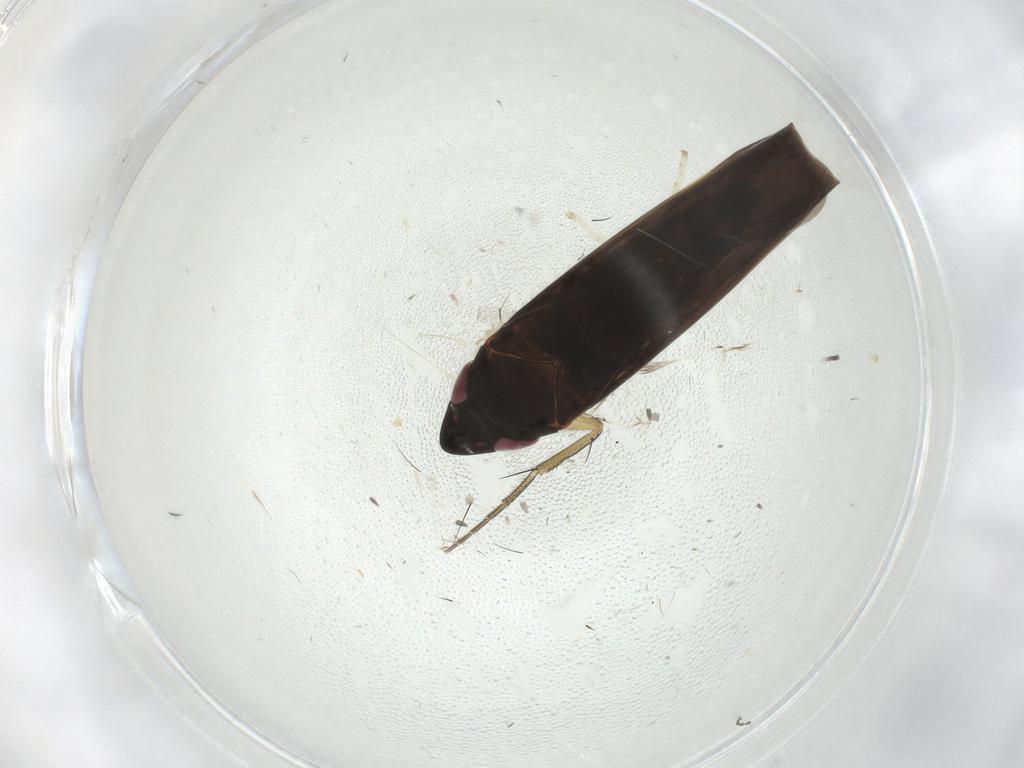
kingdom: Animalia
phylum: Arthropoda
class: Insecta
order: Hemiptera
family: Cicadellidae
